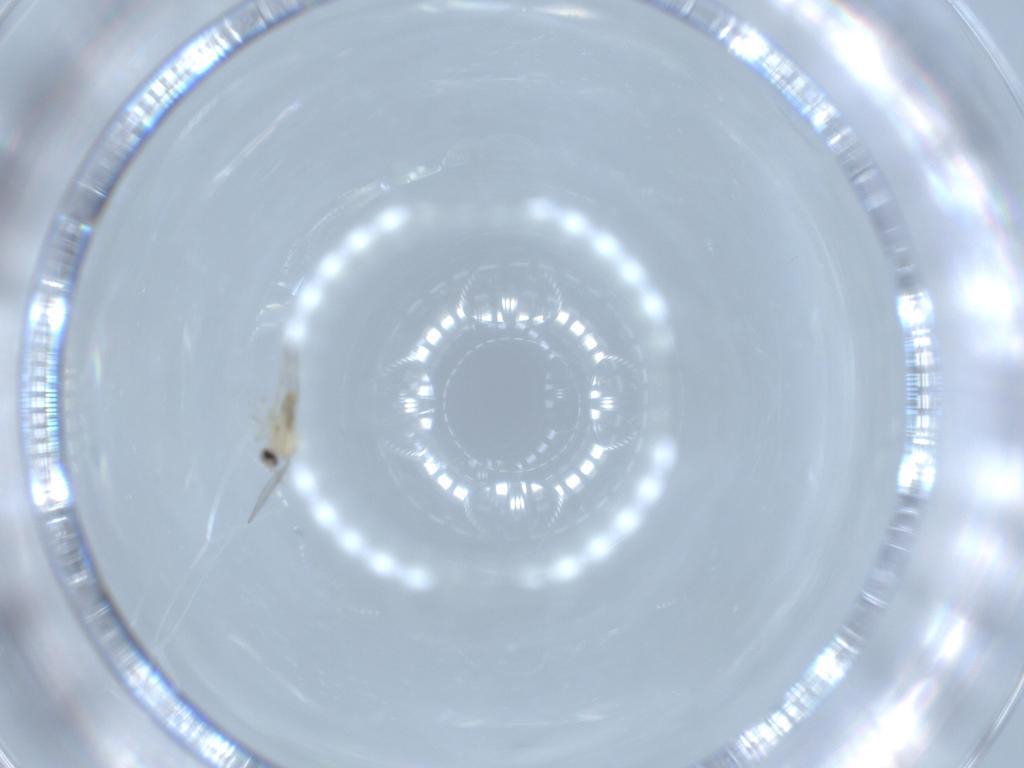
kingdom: Animalia
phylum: Arthropoda
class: Insecta
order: Diptera
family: Cecidomyiidae
